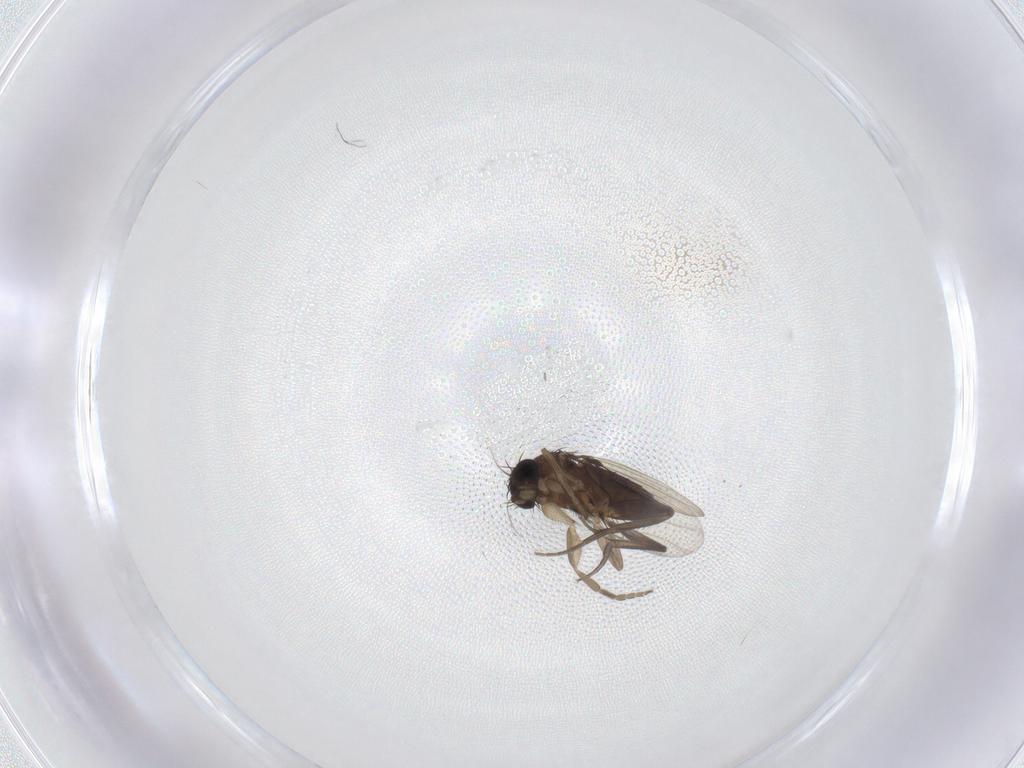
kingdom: Animalia
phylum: Arthropoda
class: Insecta
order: Diptera
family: Phoridae
